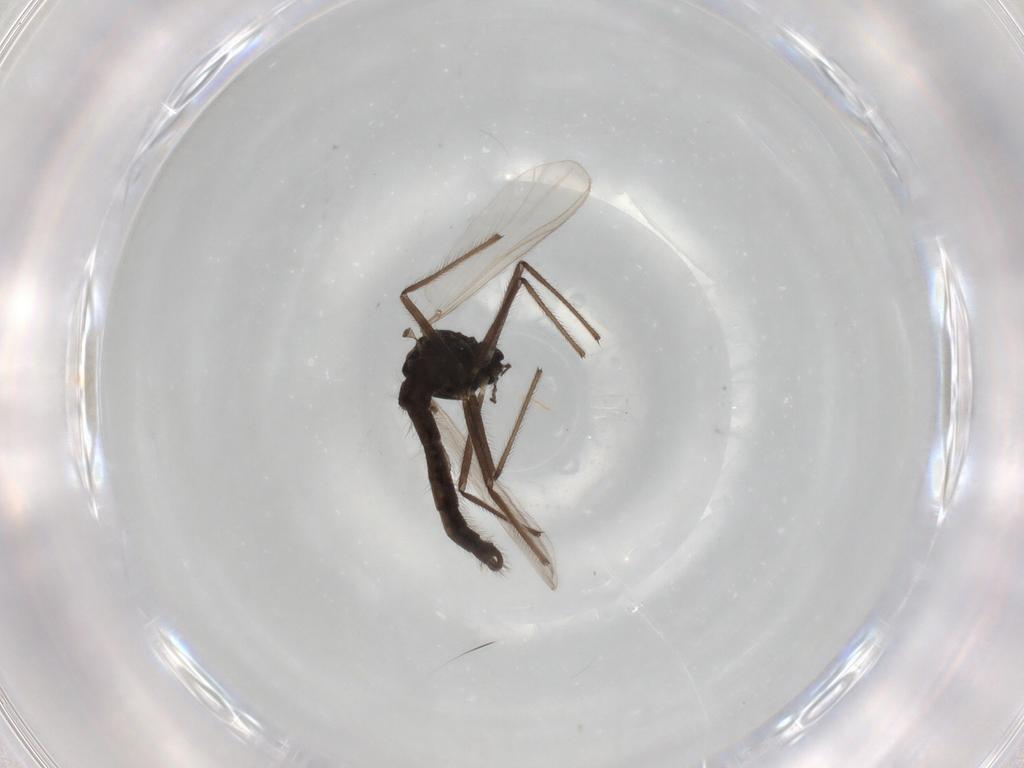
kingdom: Animalia
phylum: Arthropoda
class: Insecta
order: Diptera
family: Chironomidae
